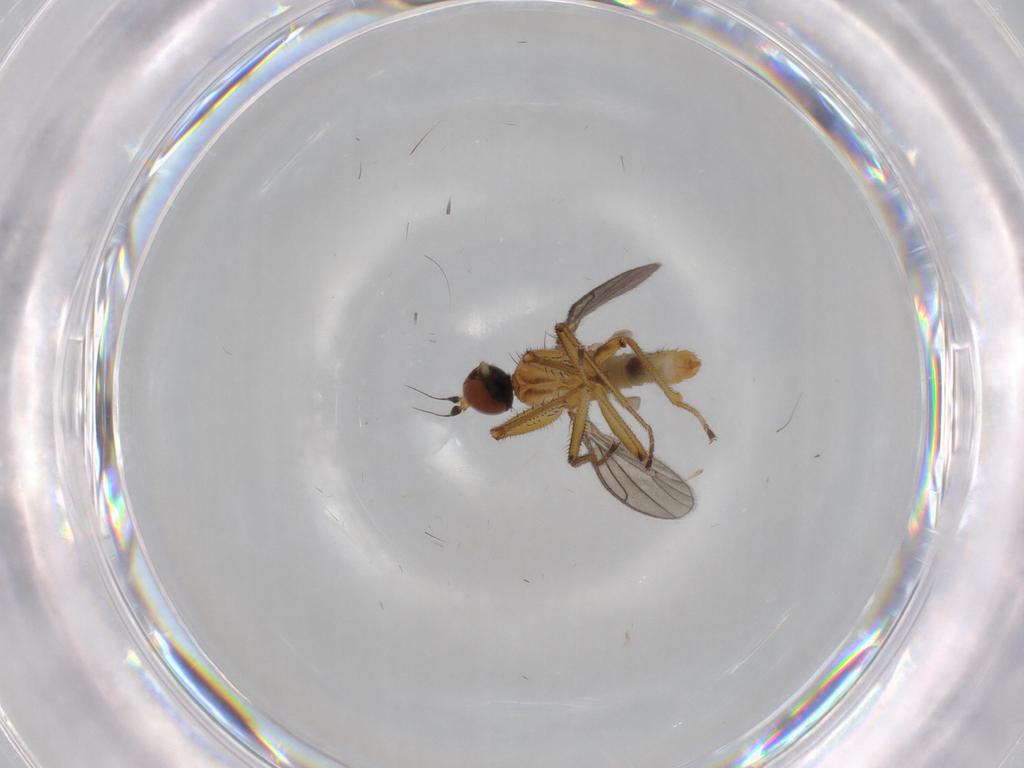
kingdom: Animalia
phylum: Arthropoda
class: Insecta
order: Diptera
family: Empididae
